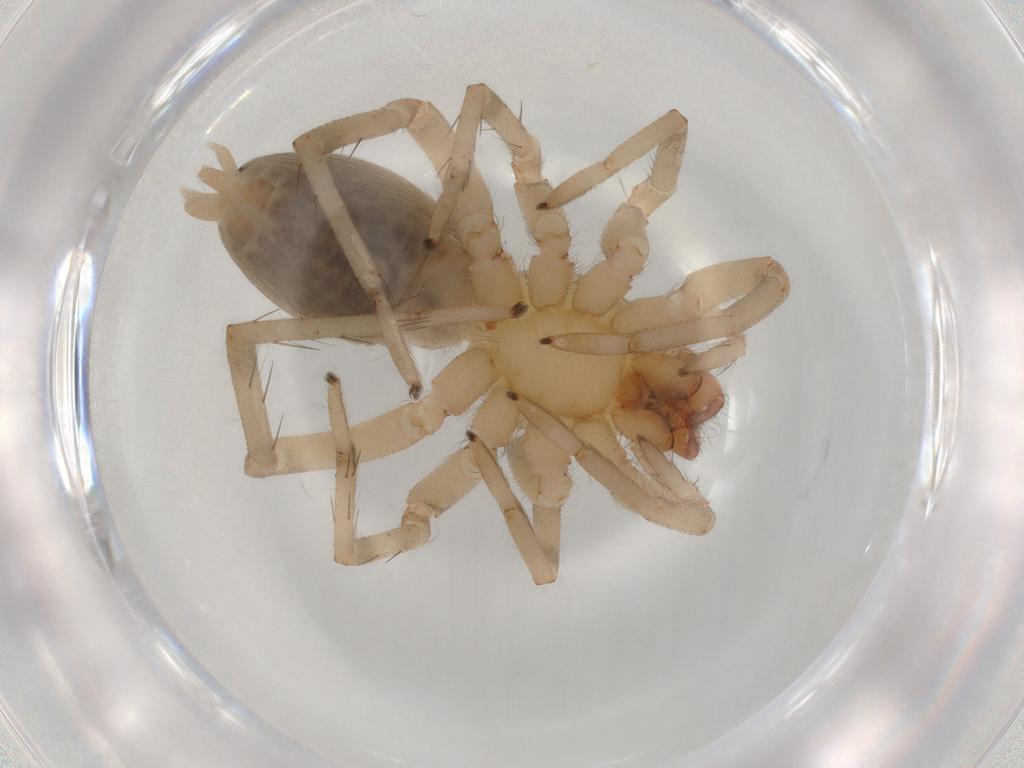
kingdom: Animalia
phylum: Arthropoda
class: Arachnida
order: Araneae
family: Gnaphosidae
